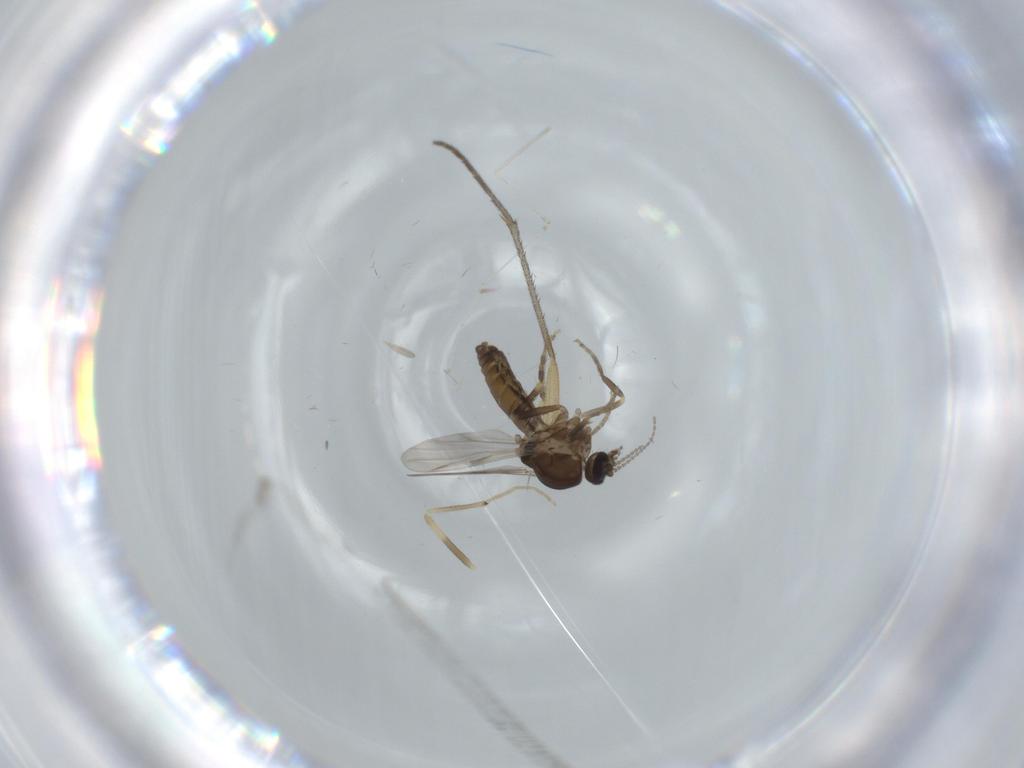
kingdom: Animalia
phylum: Arthropoda
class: Insecta
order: Diptera
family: Ceratopogonidae
